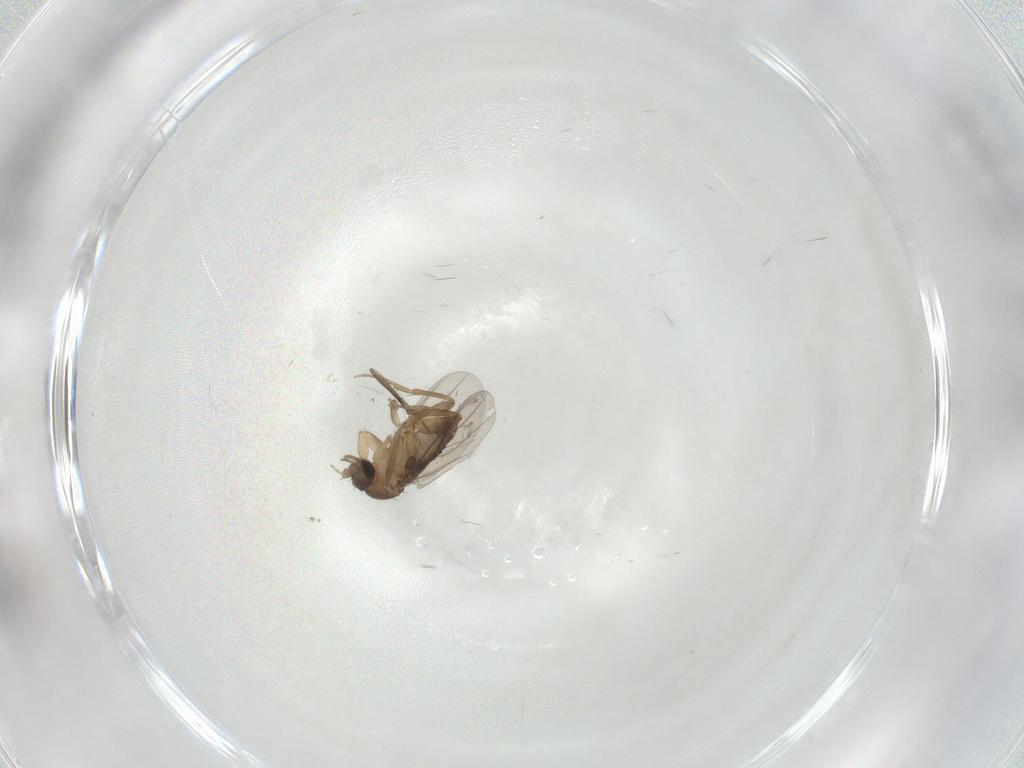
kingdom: Animalia
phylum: Arthropoda
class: Insecta
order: Diptera
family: Cecidomyiidae
